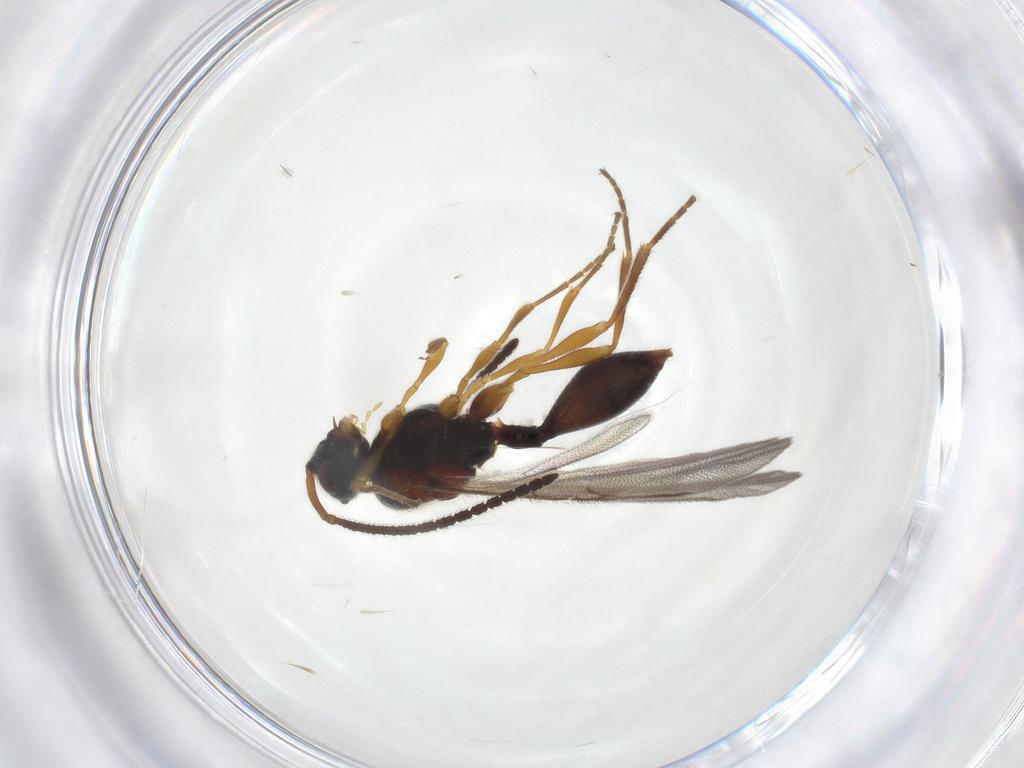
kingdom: Animalia
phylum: Arthropoda
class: Insecta
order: Hymenoptera
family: Diapriidae
